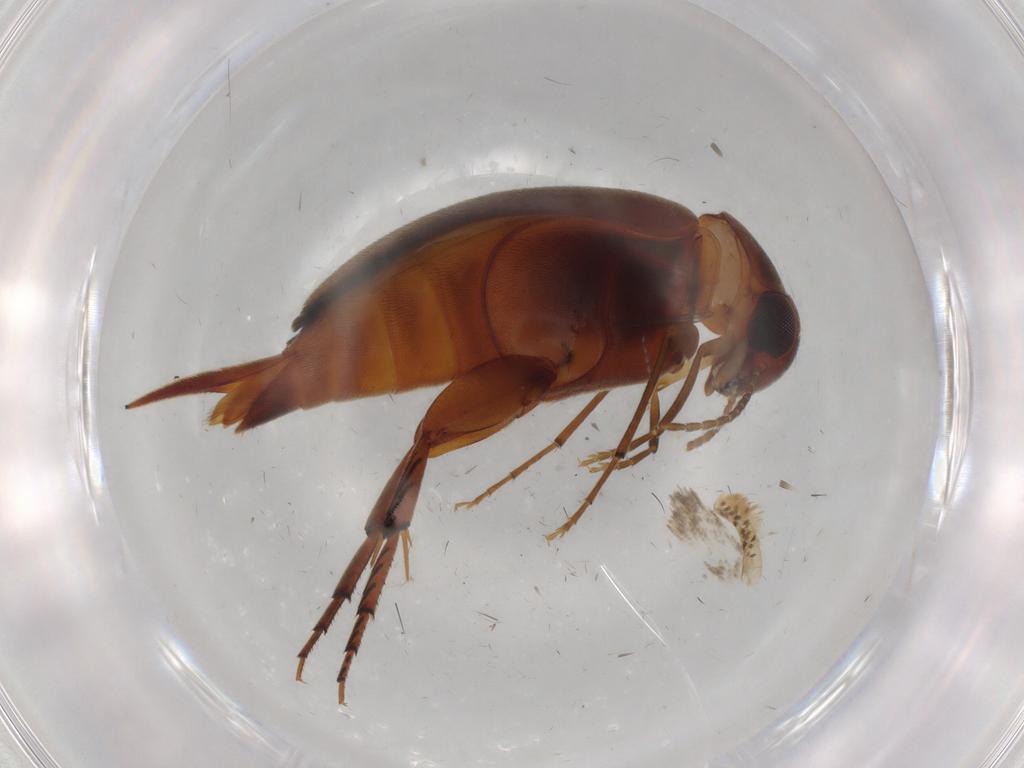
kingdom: Animalia
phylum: Arthropoda
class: Insecta
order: Coleoptera
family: Mordellidae
